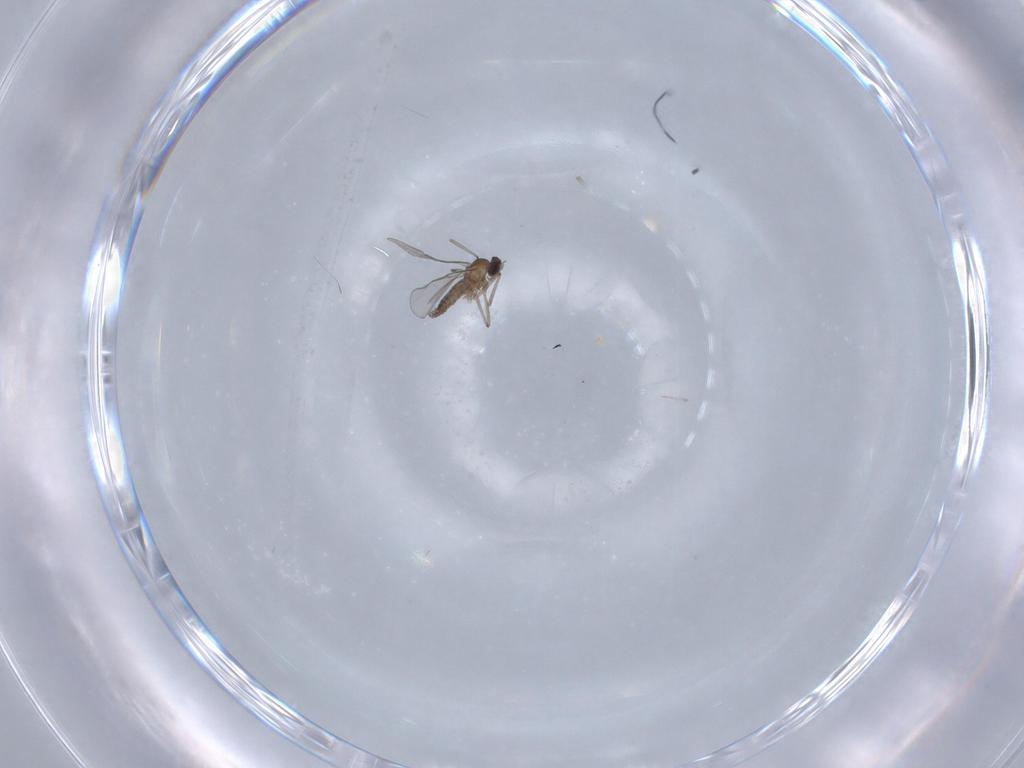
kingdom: Animalia
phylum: Arthropoda
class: Insecta
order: Diptera
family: Cecidomyiidae
